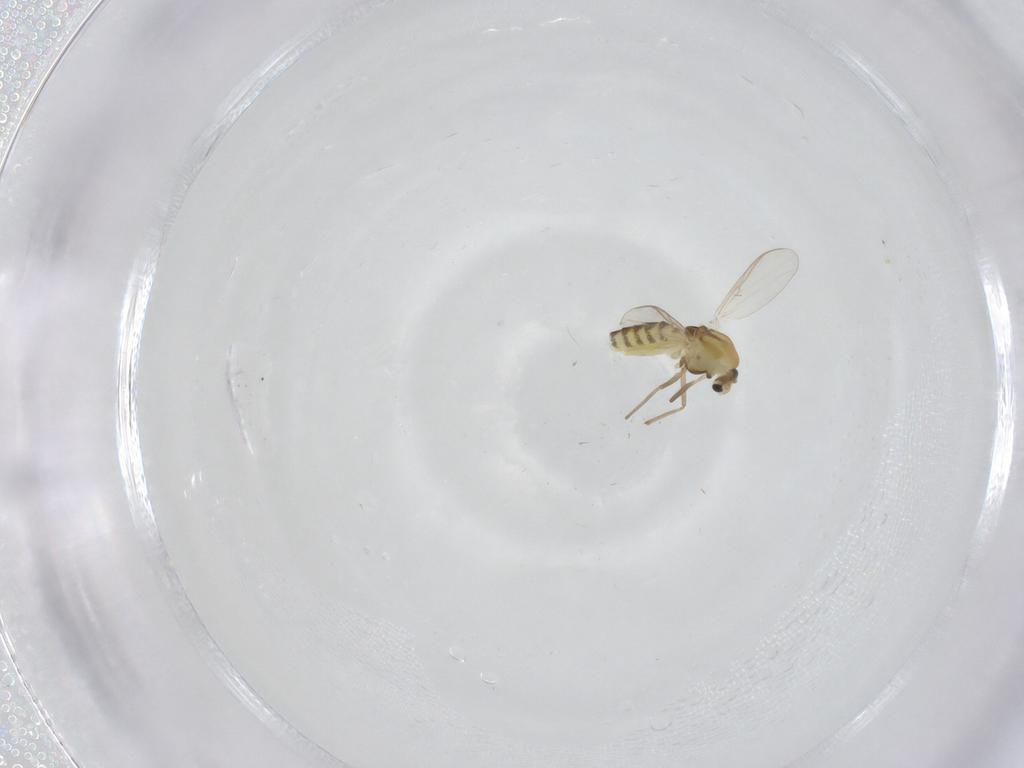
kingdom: Animalia
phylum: Arthropoda
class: Insecta
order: Diptera
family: Chironomidae
